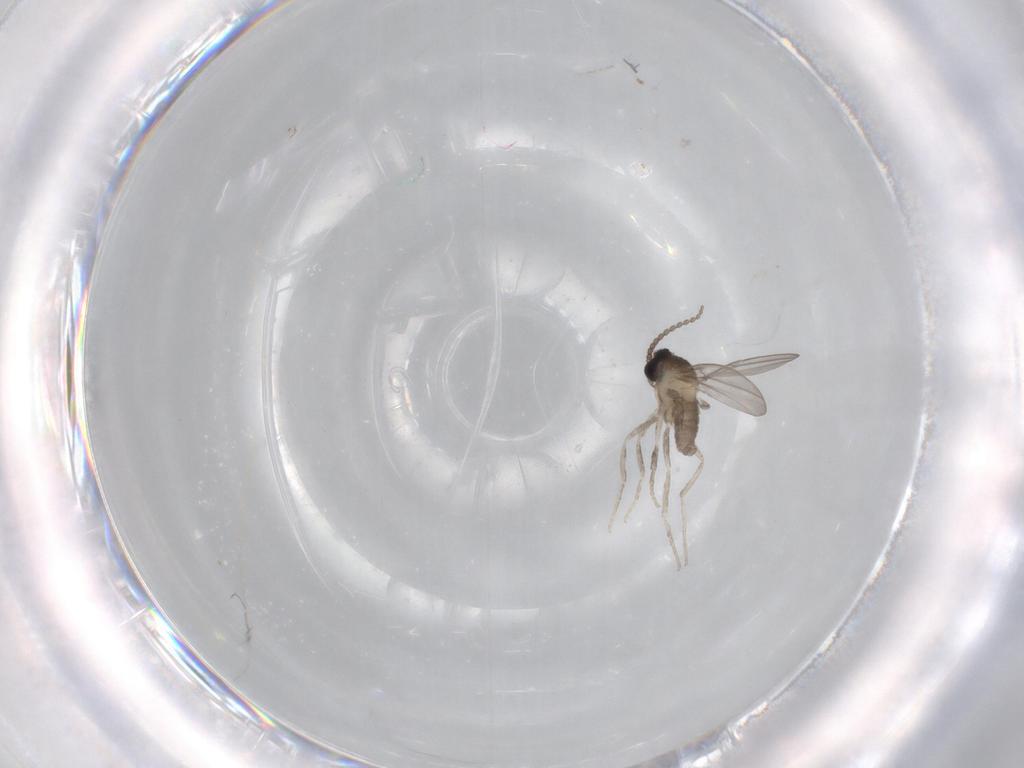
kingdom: Animalia
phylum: Arthropoda
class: Insecta
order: Diptera
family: Cecidomyiidae
